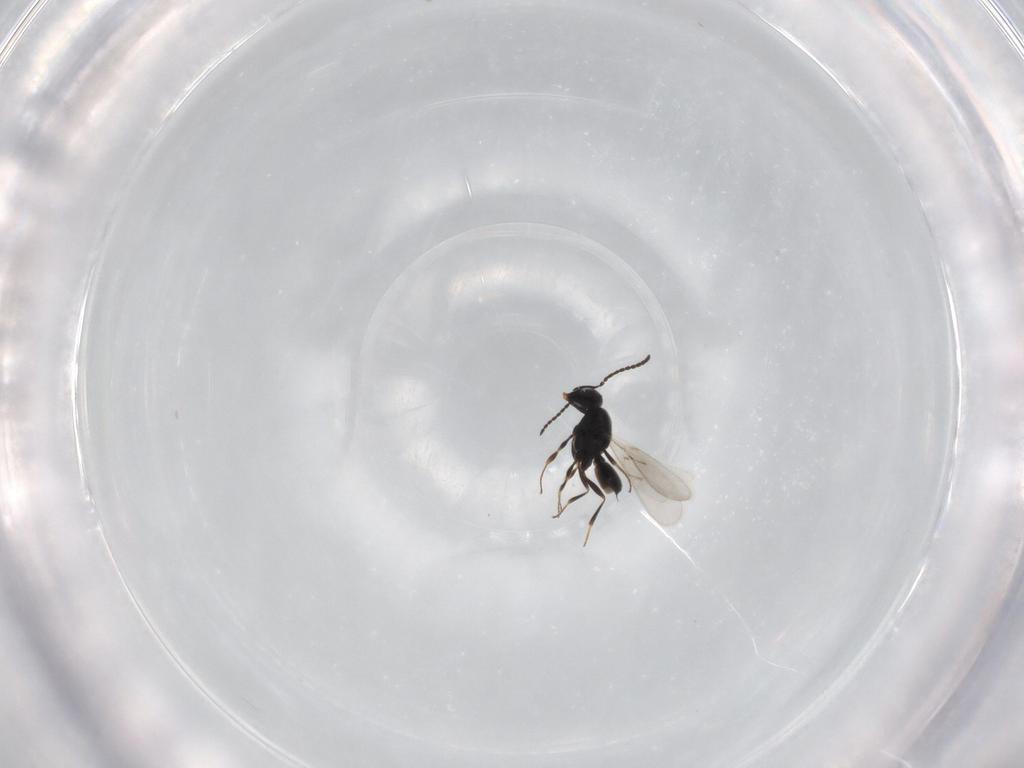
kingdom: Animalia
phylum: Arthropoda
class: Insecta
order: Hymenoptera
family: Scelionidae
